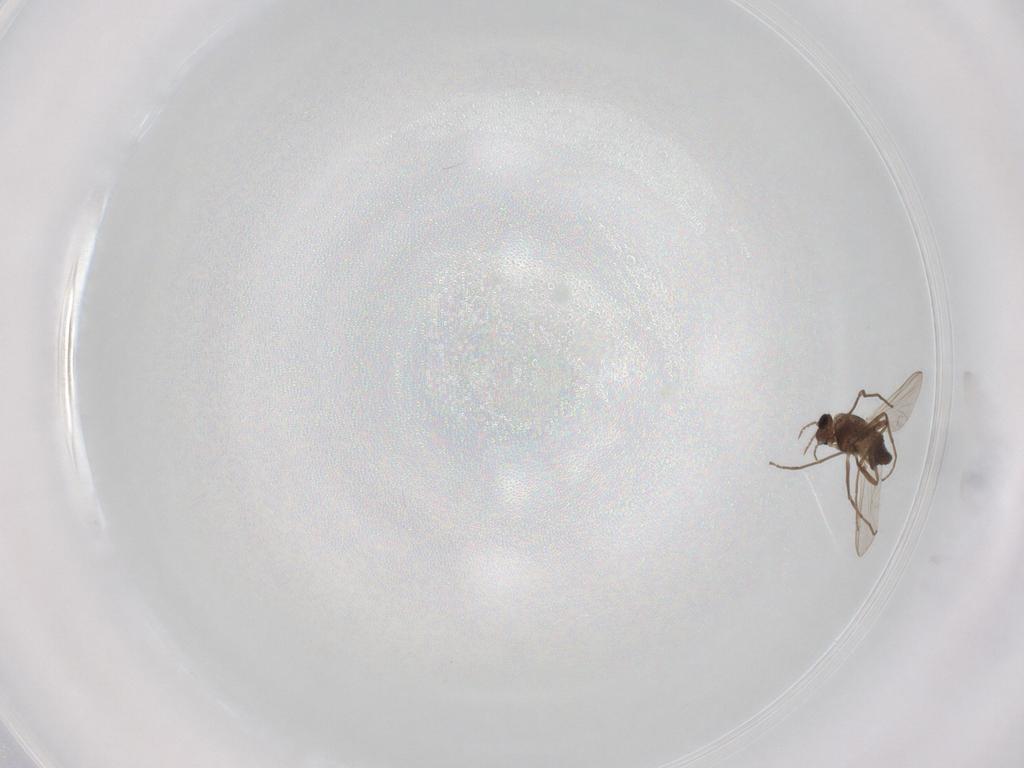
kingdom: Animalia
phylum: Arthropoda
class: Insecta
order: Diptera
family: Chironomidae
